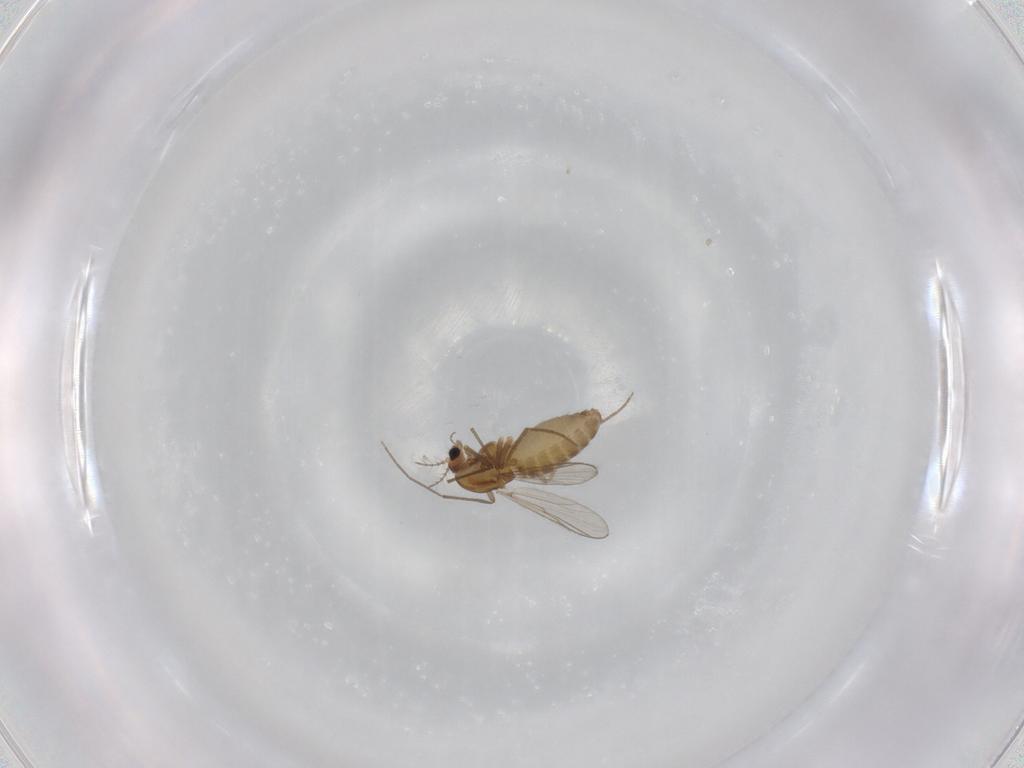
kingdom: Animalia
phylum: Arthropoda
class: Insecta
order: Diptera
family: Chironomidae
